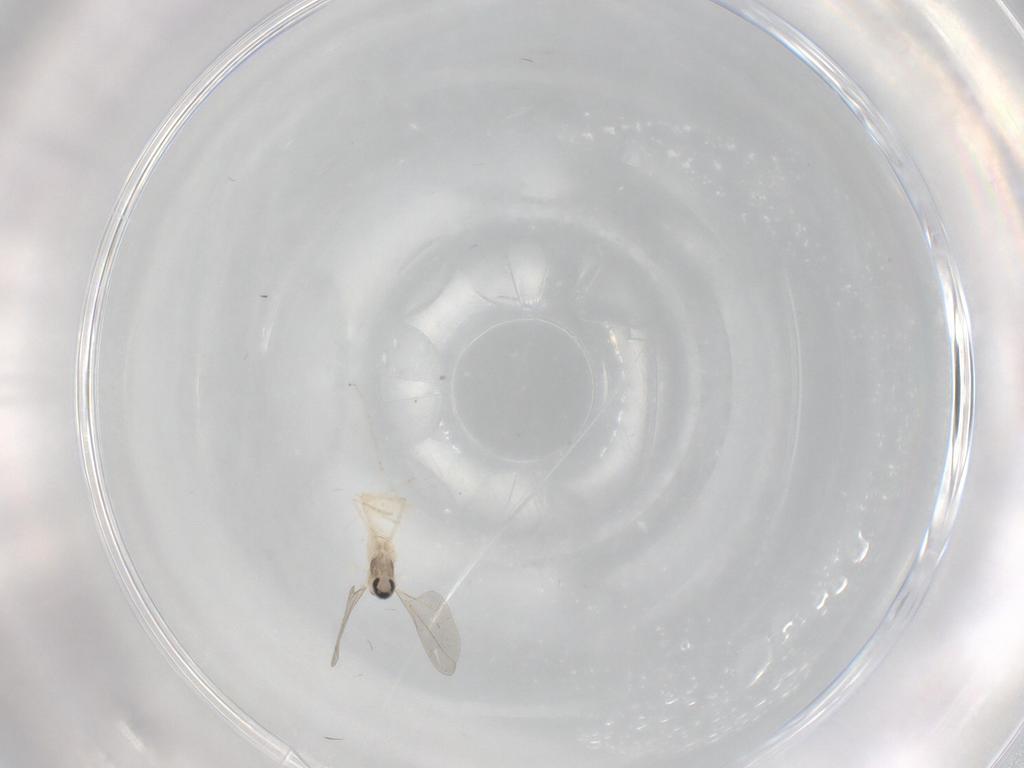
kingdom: Animalia
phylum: Arthropoda
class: Insecta
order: Diptera
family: Cecidomyiidae
